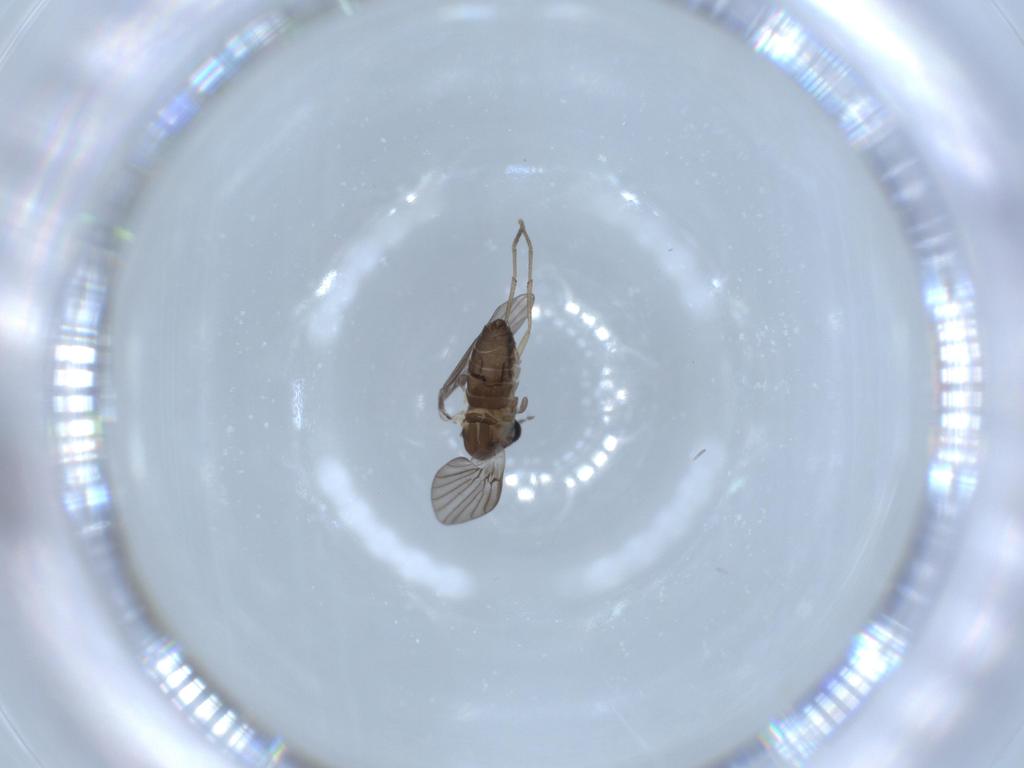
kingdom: Animalia
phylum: Arthropoda
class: Insecta
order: Diptera
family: Psychodidae
